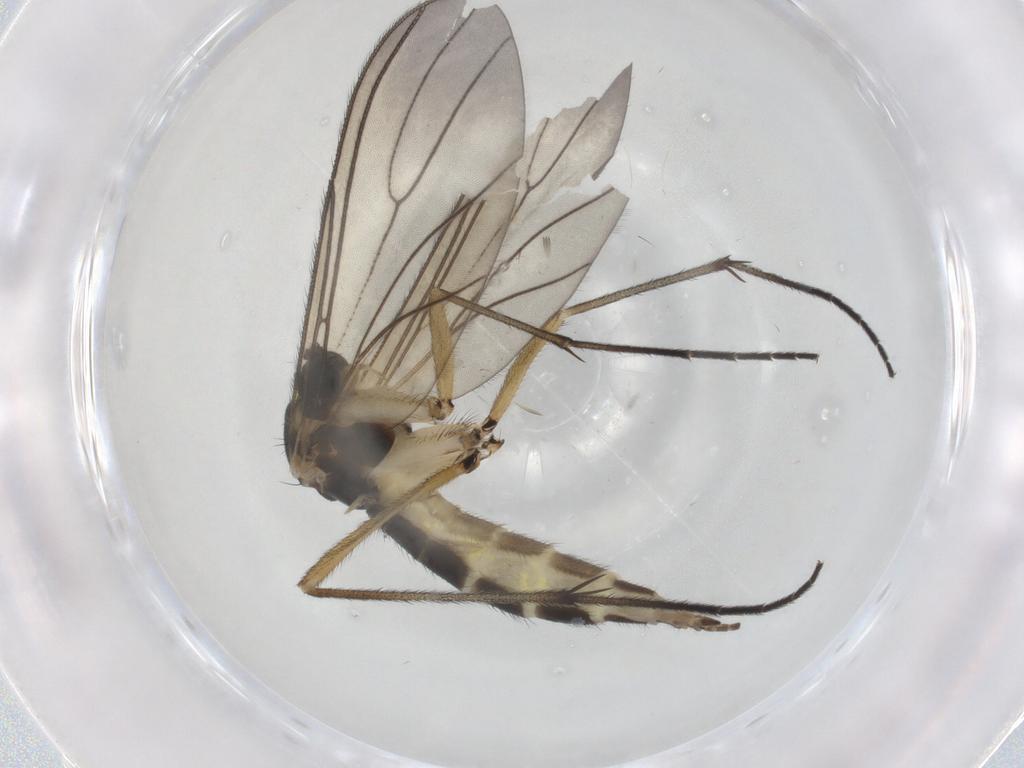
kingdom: Animalia
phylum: Arthropoda
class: Insecta
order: Diptera
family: Sciaridae
